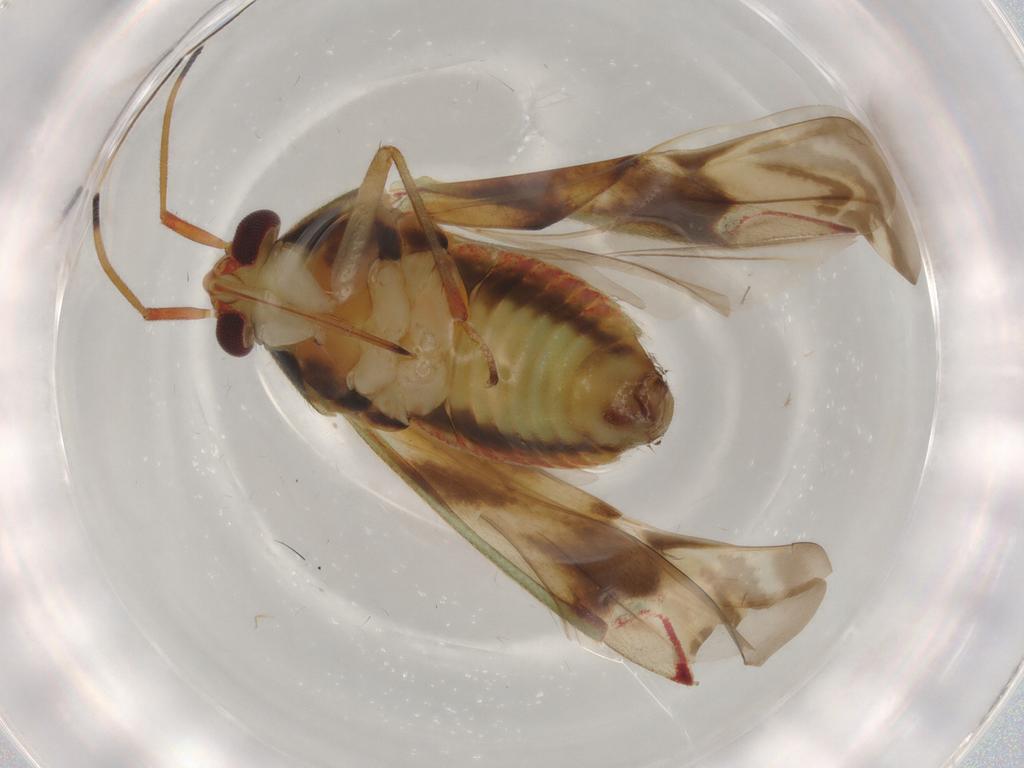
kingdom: Animalia
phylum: Arthropoda
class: Insecta
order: Hemiptera
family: Miridae
